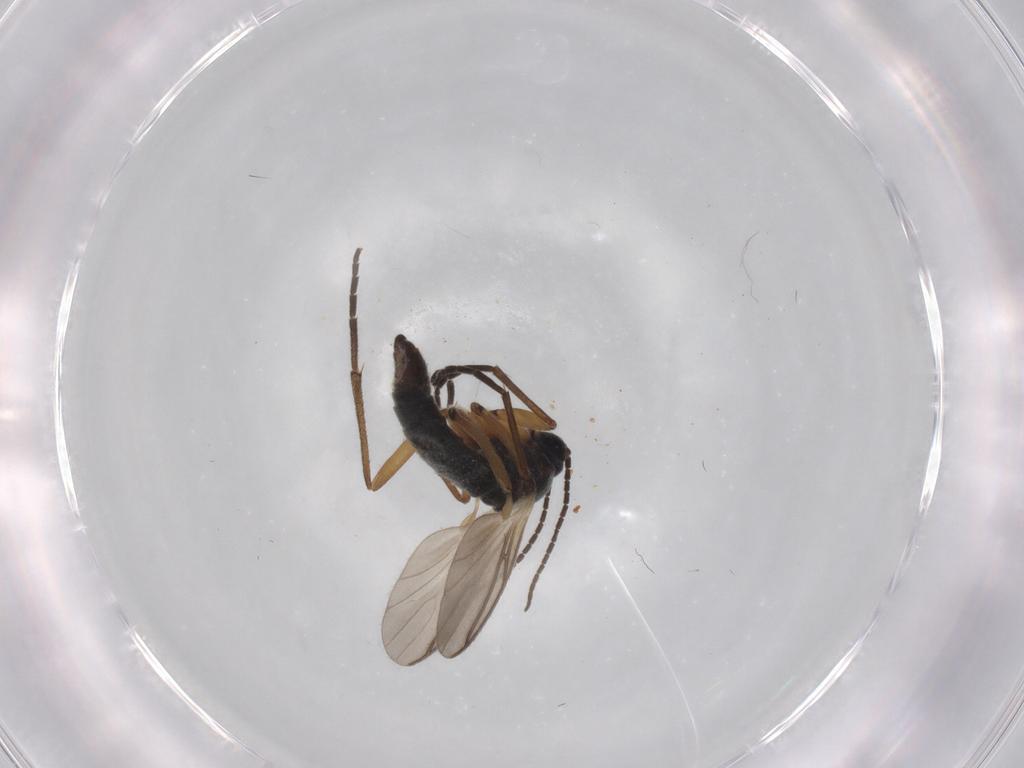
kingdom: Animalia
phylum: Arthropoda
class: Insecta
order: Diptera
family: Sciaridae
